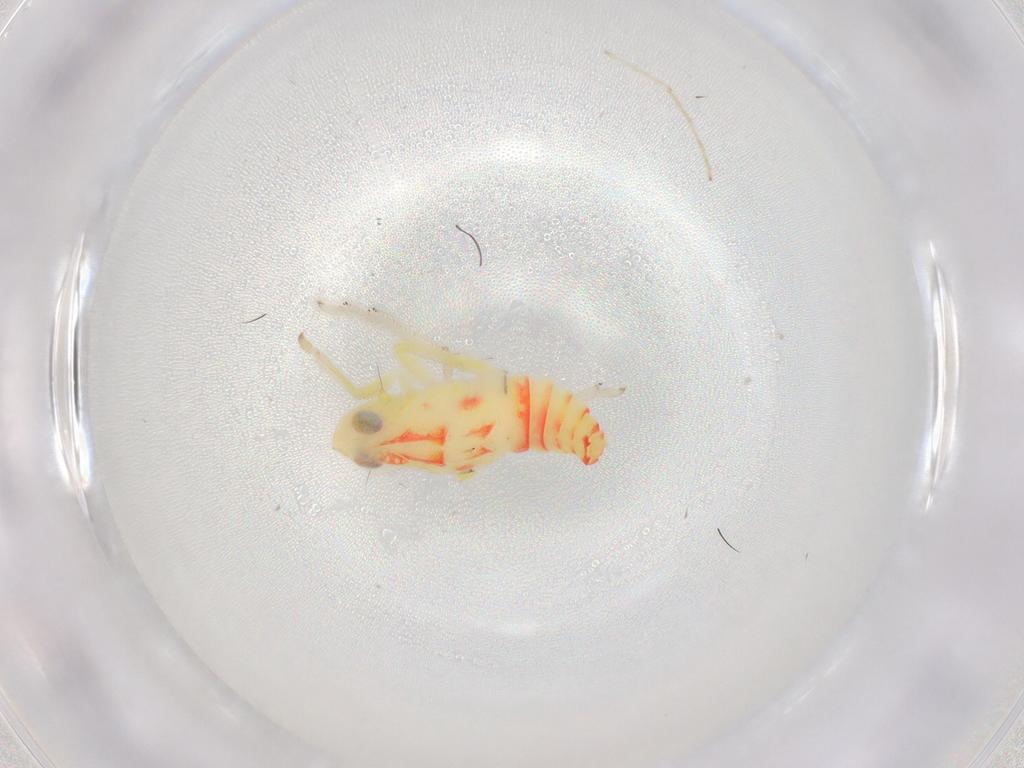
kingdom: Animalia
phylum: Arthropoda
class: Insecta
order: Hemiptera
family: Tropiduchidae
